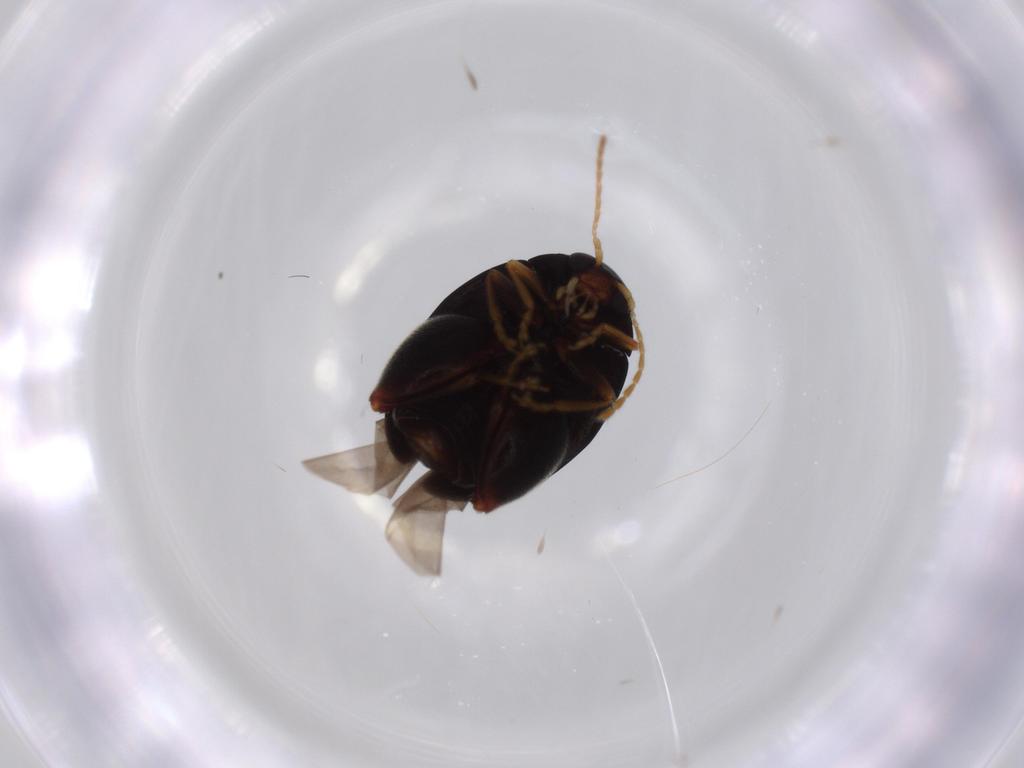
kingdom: Animalia
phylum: Arthropoda
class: Insecta
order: Coleoptera
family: Chrysomelidae
